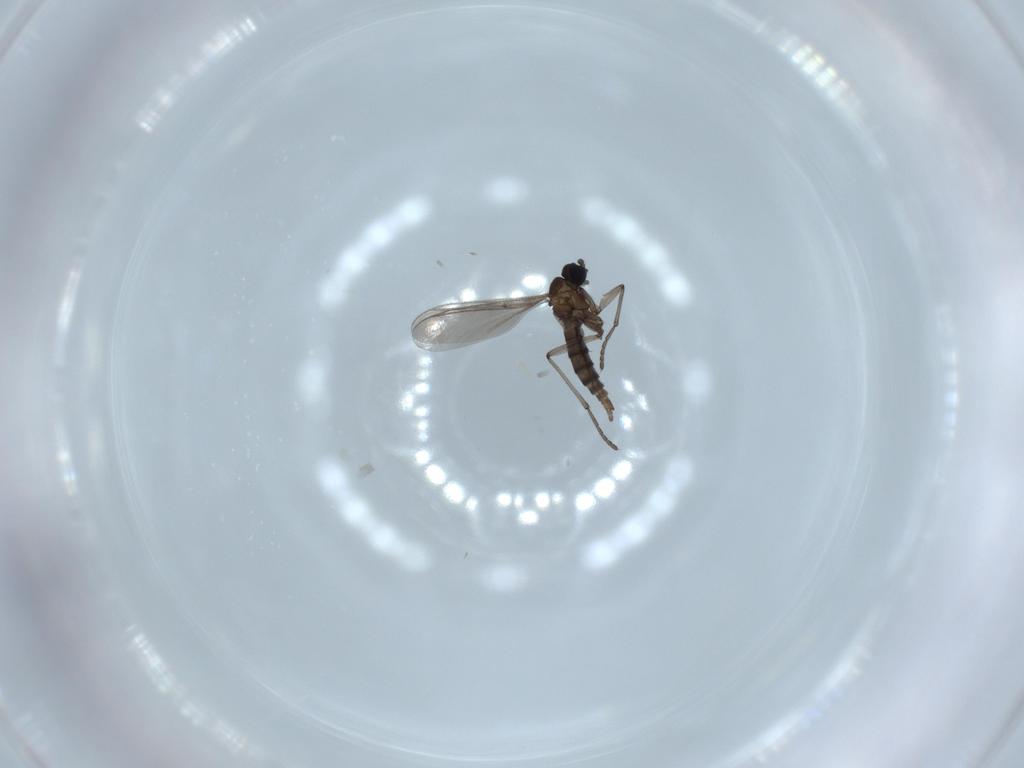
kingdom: Animalia
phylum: Arthropoda
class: Insecta
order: Diptera
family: Sciaridae
